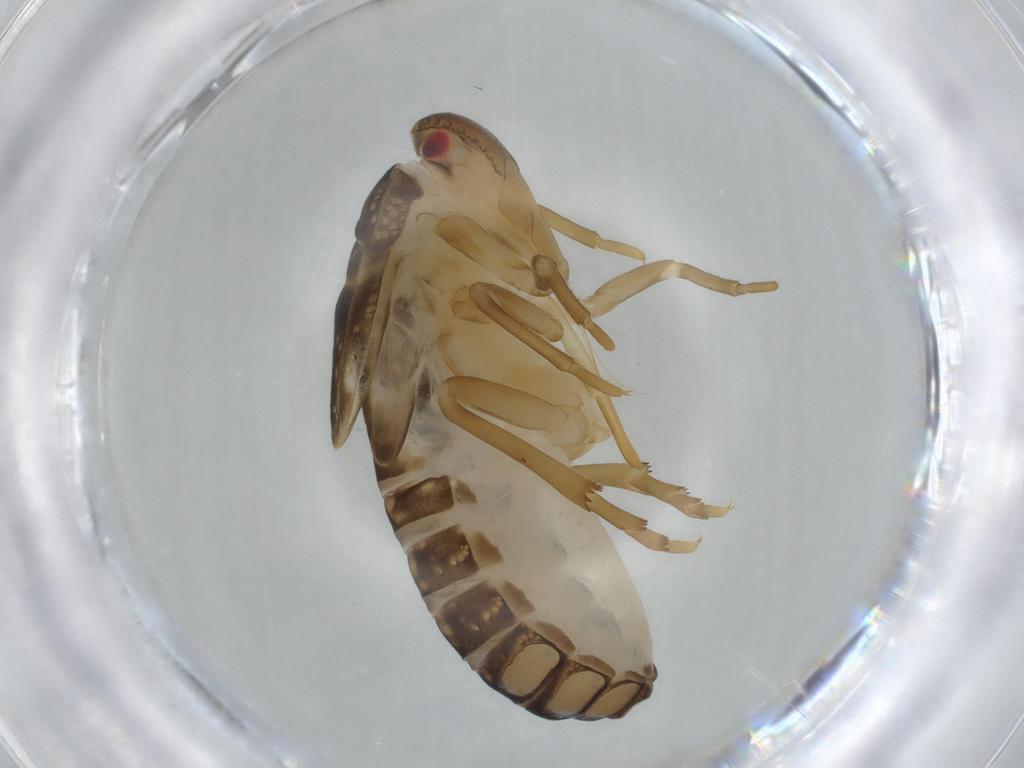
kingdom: Animalia
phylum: Arthropoda
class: Insecta
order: Hemiptera
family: Achilidae
